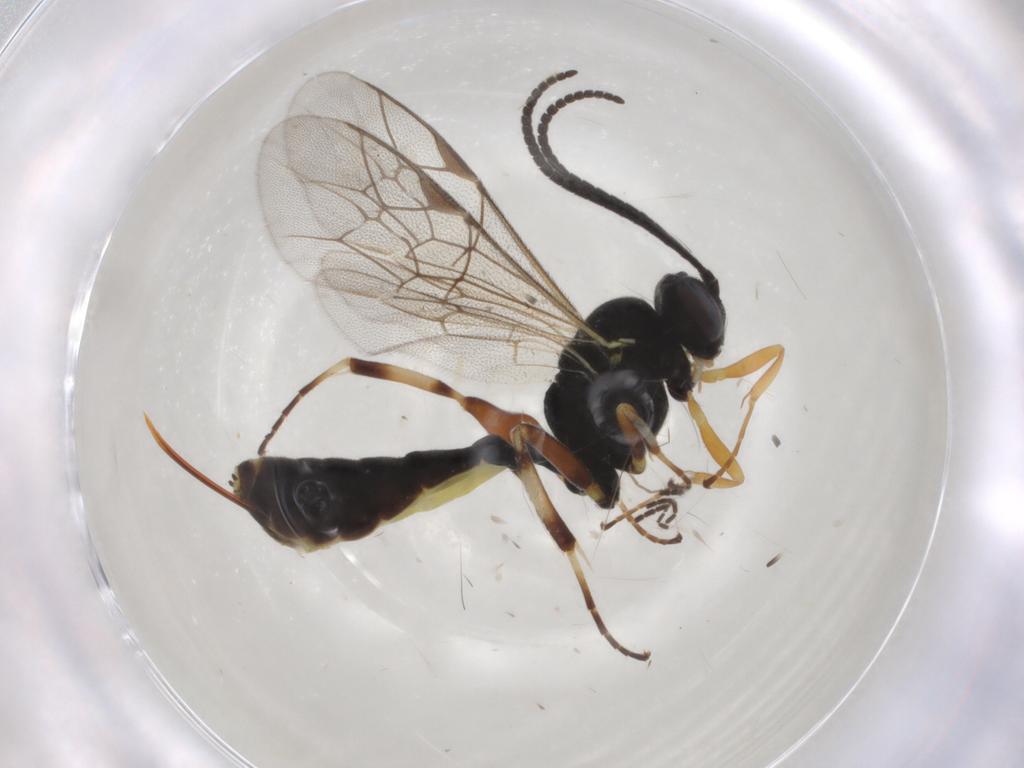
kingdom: Animalia
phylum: Arthropoda
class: Insecta
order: Hymenoptera
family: Ichneumonidae
